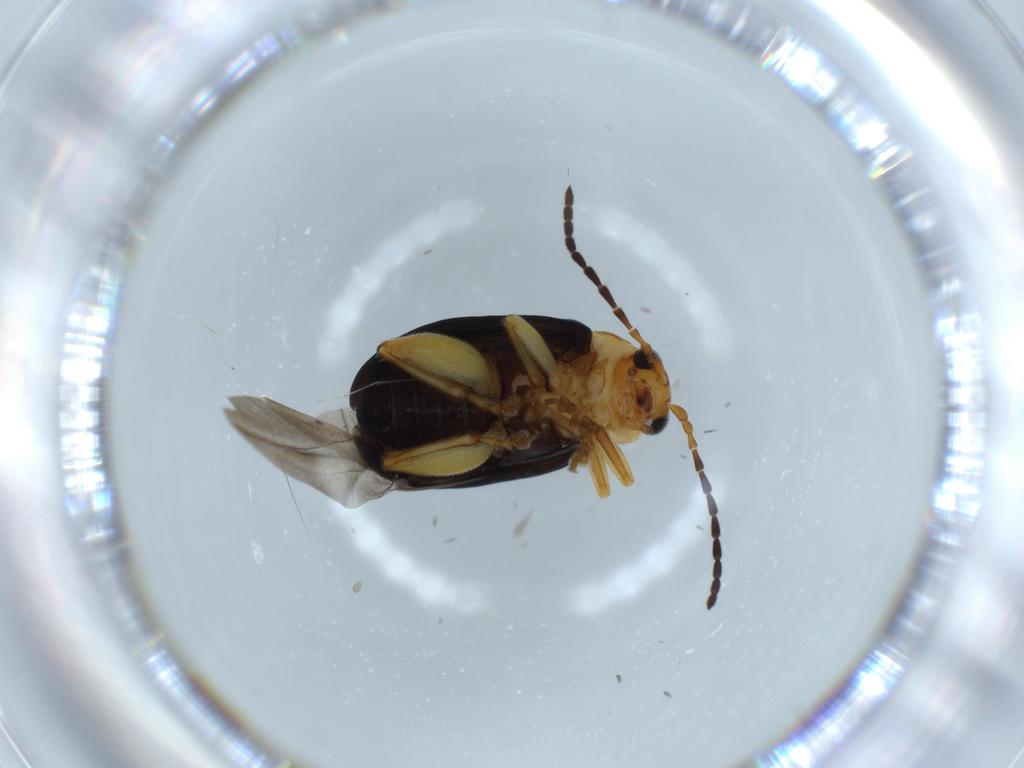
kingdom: Animalia
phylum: Arthropoda
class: Insecta
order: Coleoptera
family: Chrysomelidae
